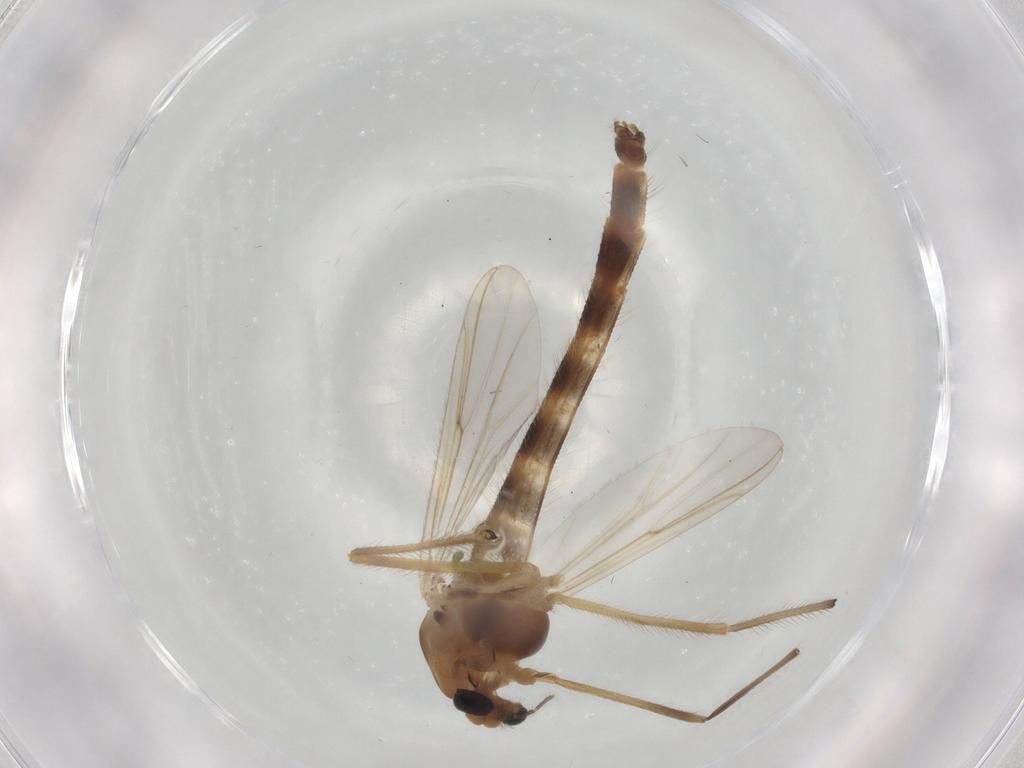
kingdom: Animalia
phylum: Arthropoda
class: Insecta
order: Diptera
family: Chironomidae
